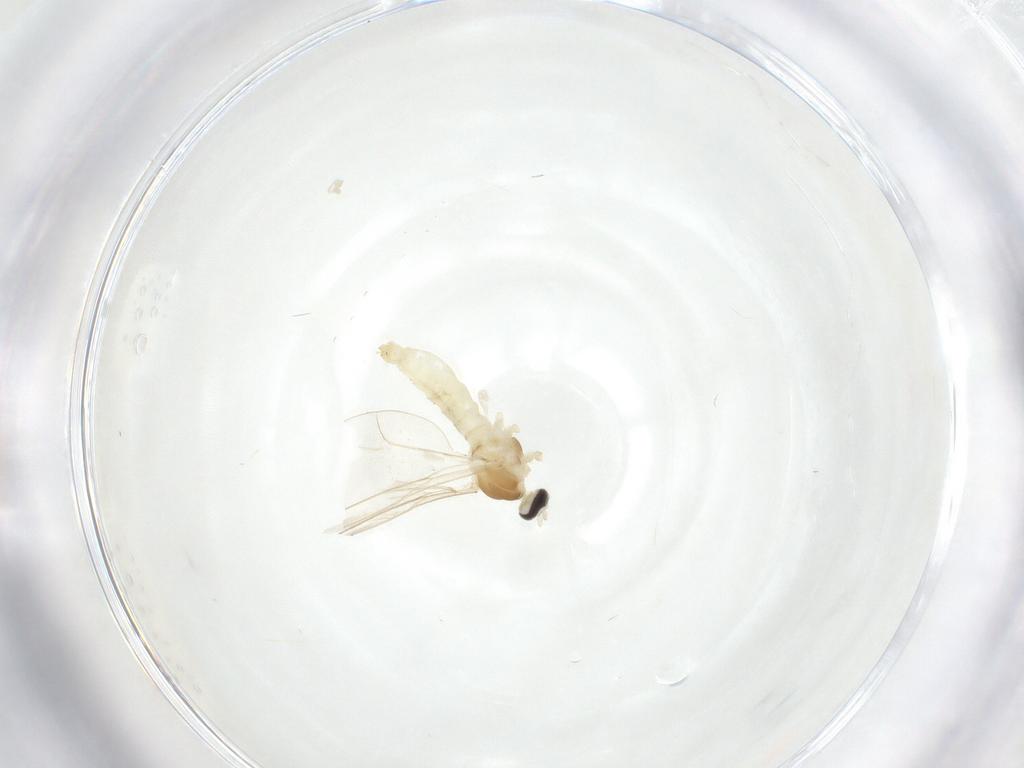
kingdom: Animalia
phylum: Arthropoda
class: Insecta
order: Diptera
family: Cecidomyiidae
